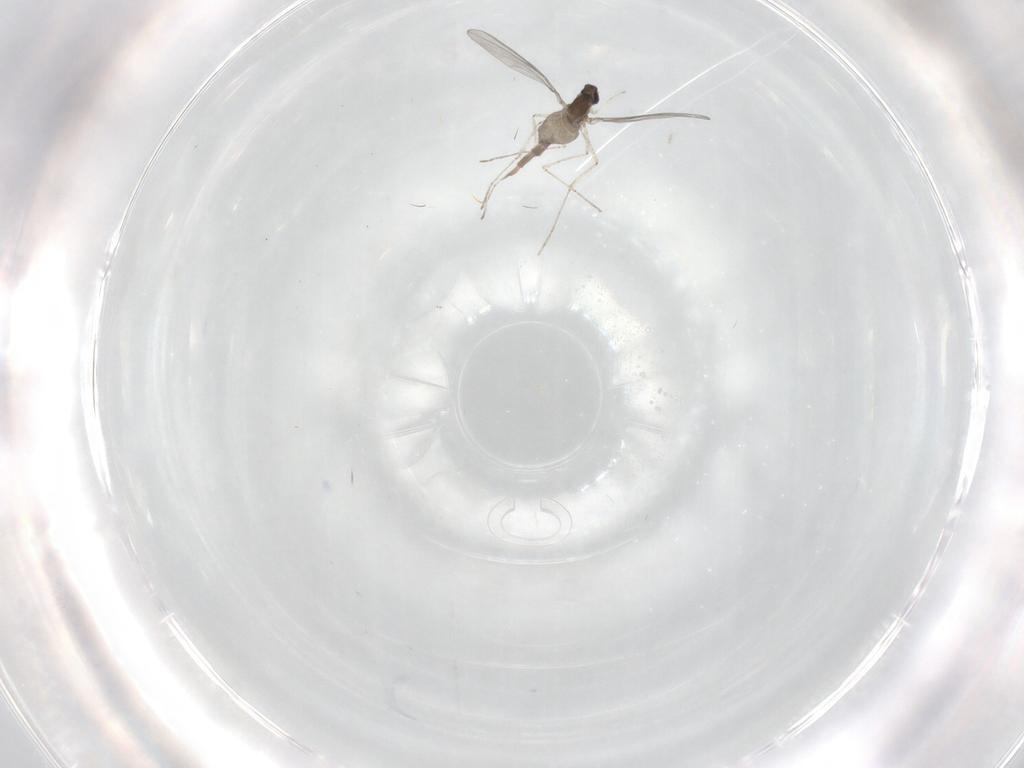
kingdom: Animalia
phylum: Arthropoda
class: Insecta
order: Diptera
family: Cecidomyiidae
